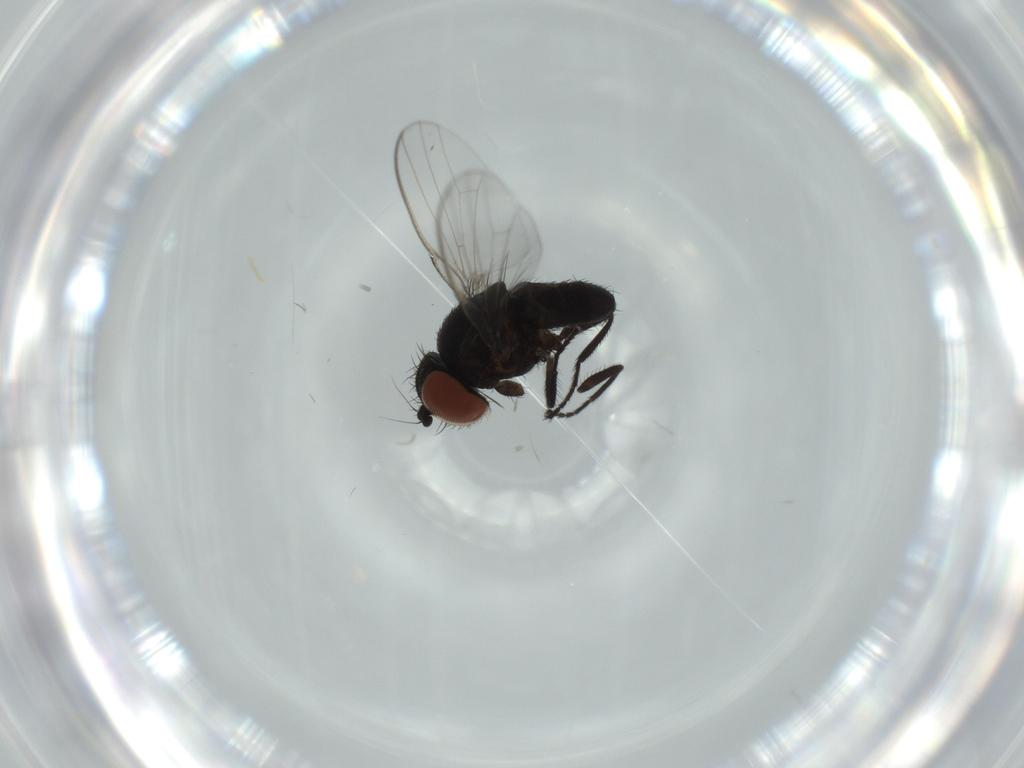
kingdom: Animalia
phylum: Arthropoda
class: Insecta
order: Diptera
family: Milichiidae
